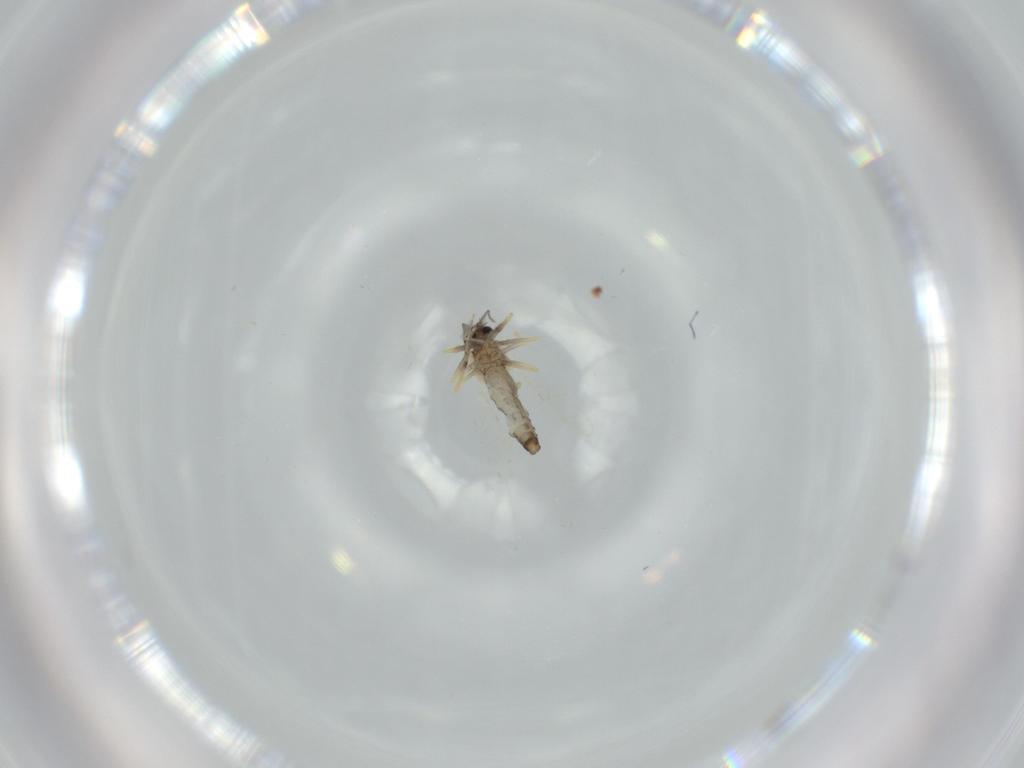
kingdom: Animalia
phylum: Arthropoda
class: Insecta
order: Diptera
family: Ceratopogonidae
